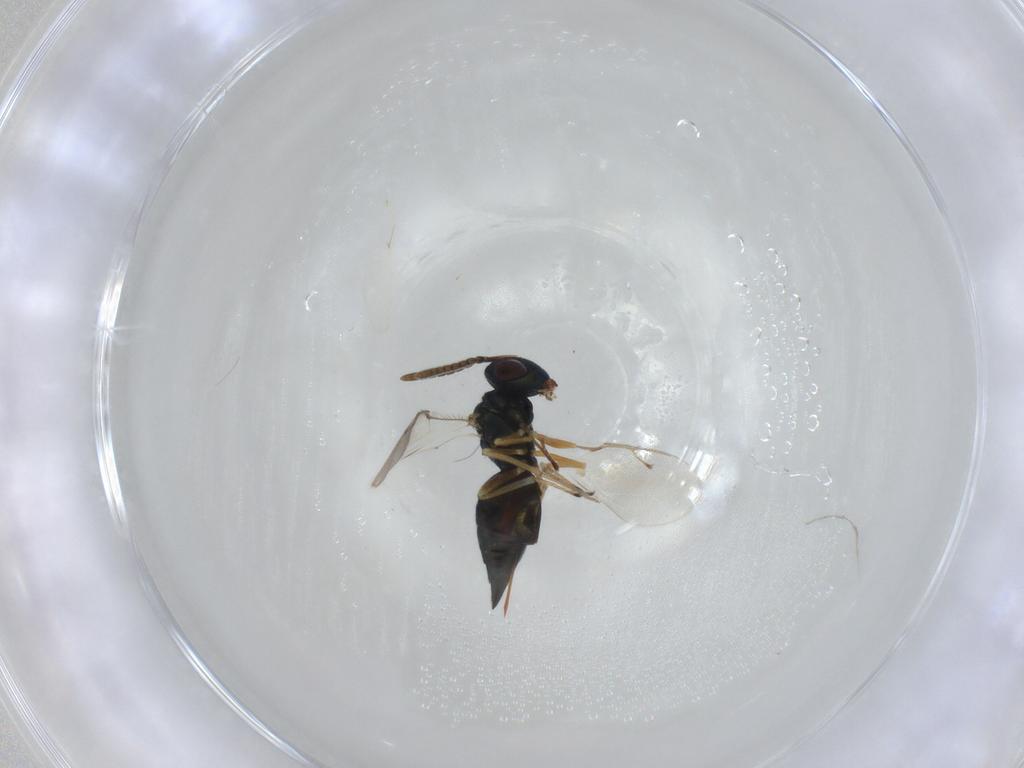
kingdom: Animalia
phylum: Arthropoda
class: Insecta
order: Hymenoptera
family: Pteromalidae
